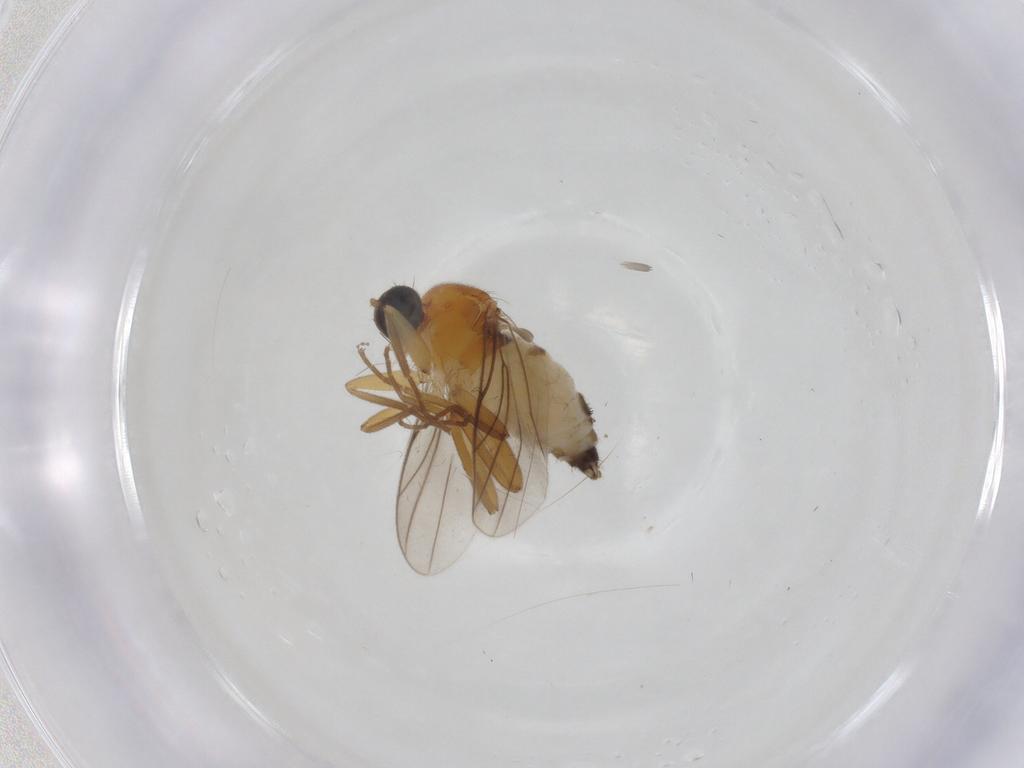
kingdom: Animalia
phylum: Arthropoda
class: Insecta
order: Diptera
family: Hybotidae
